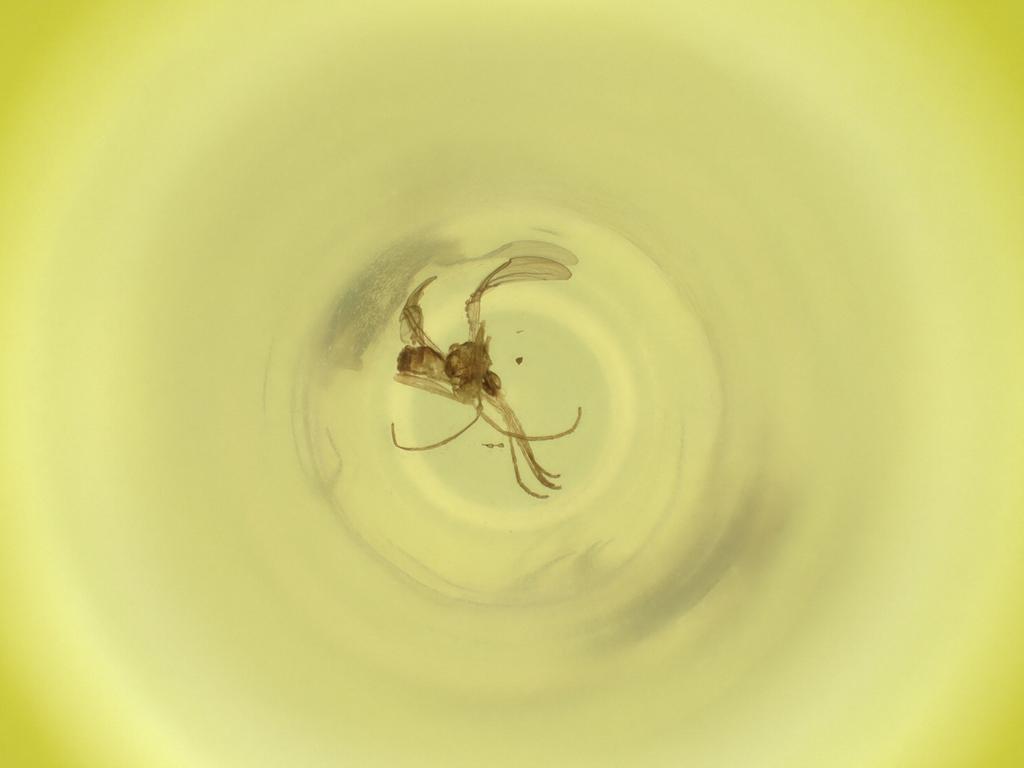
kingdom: Animalia
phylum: Arthropoda
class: Insecta
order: Diptera
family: Cecidomyiidae
